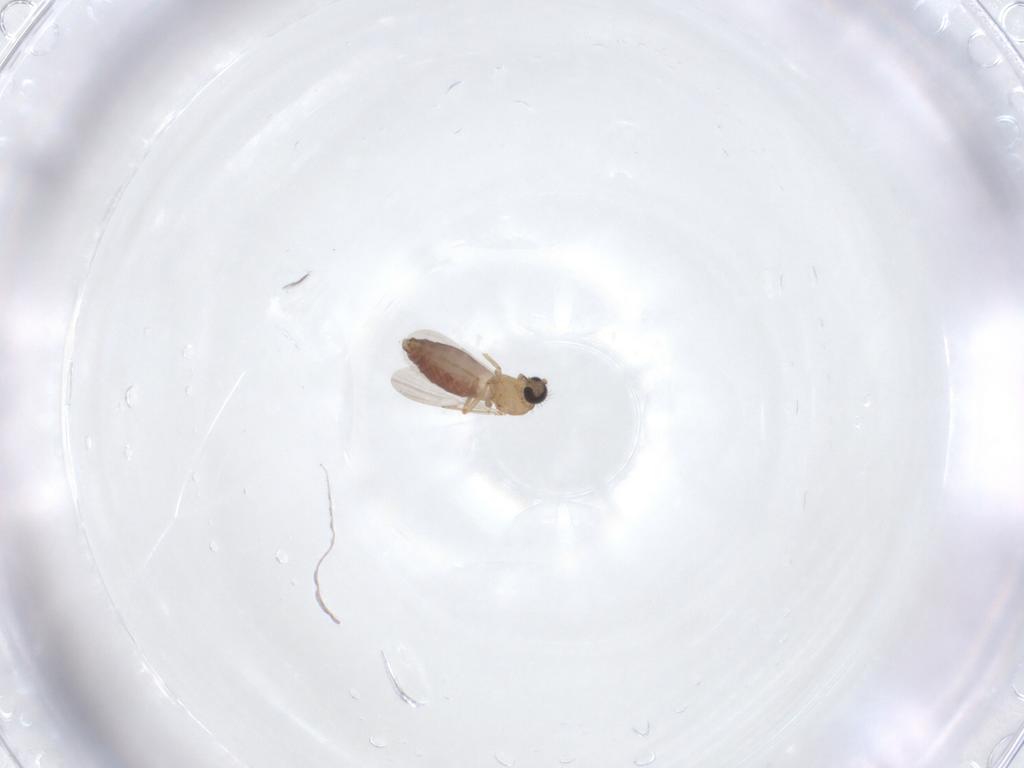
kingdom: Animalia
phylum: Arthropoda
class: Insecta
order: Diptera
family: Ceratopogonidae
